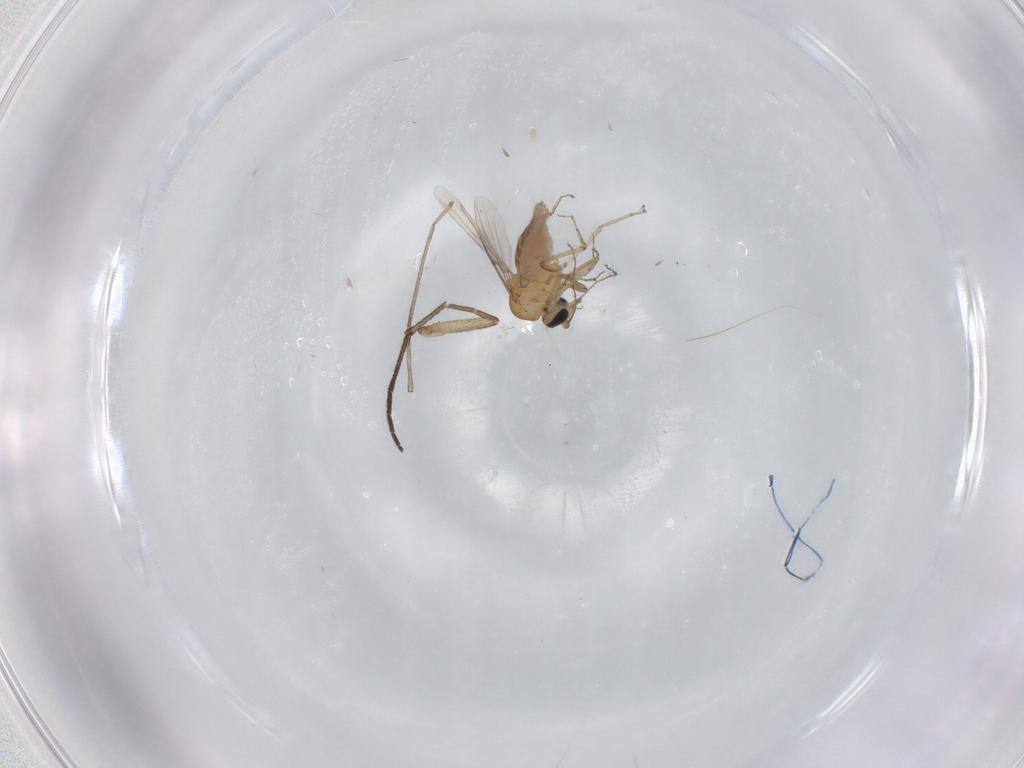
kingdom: Animalia
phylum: Arthropoda
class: Insecta
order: Diptera
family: Ceratopogonidae
